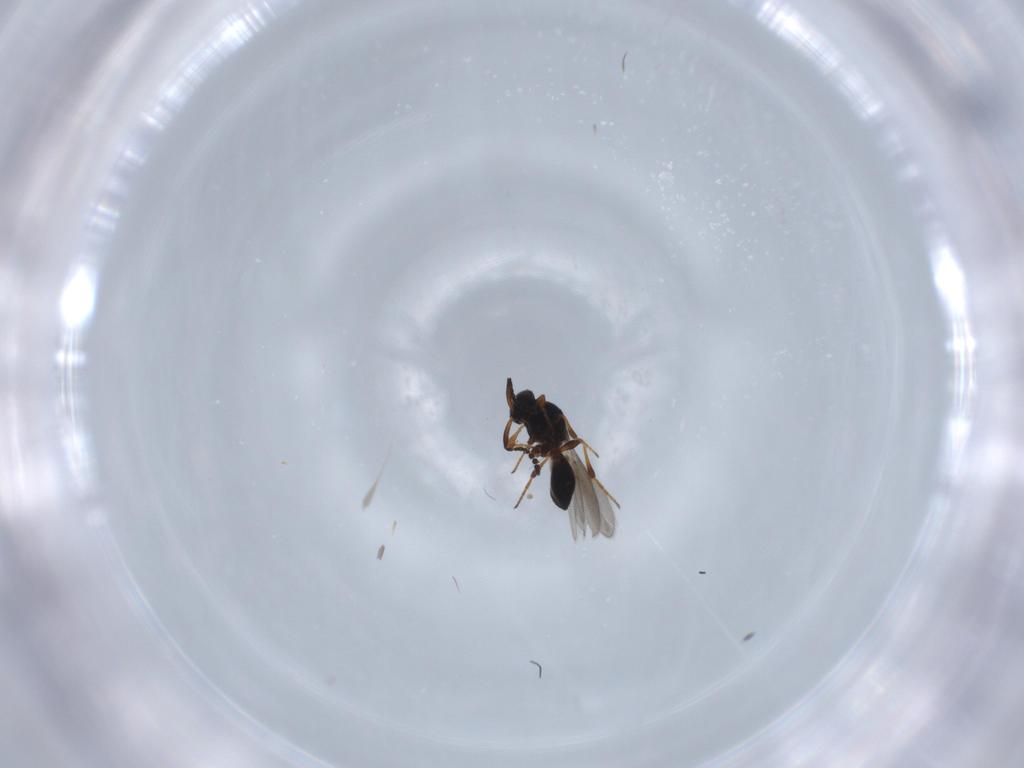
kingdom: Animalia
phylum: Arthropoda
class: Insecta
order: Hymenoptera
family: Platygastridae
